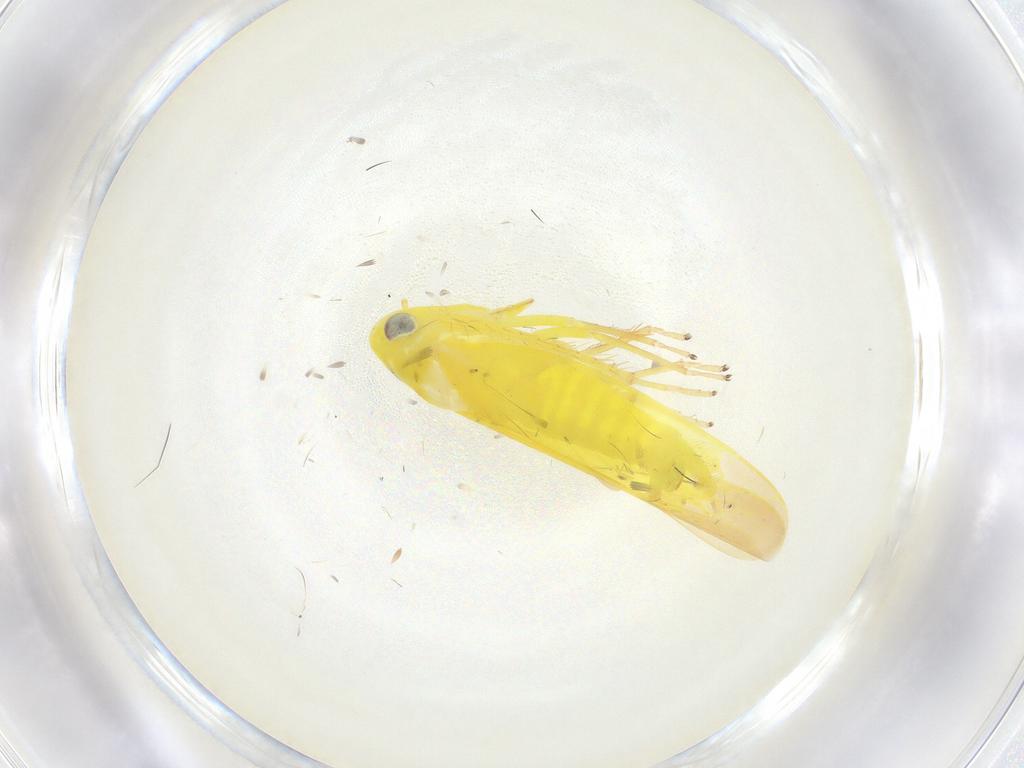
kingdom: Animalia
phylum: Arthropoda
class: Insecta
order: Hemiptera
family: Cicadellidae
